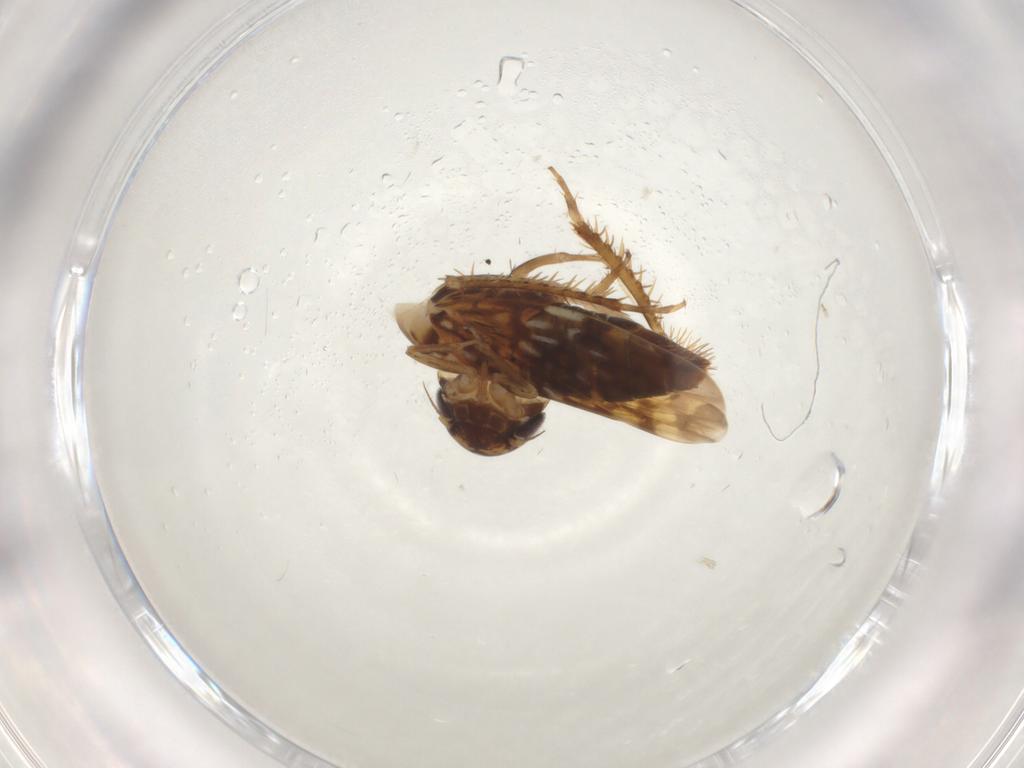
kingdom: Animalia
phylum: Arthropoda
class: Insecta
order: Hemiptera
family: Cicadellidae
